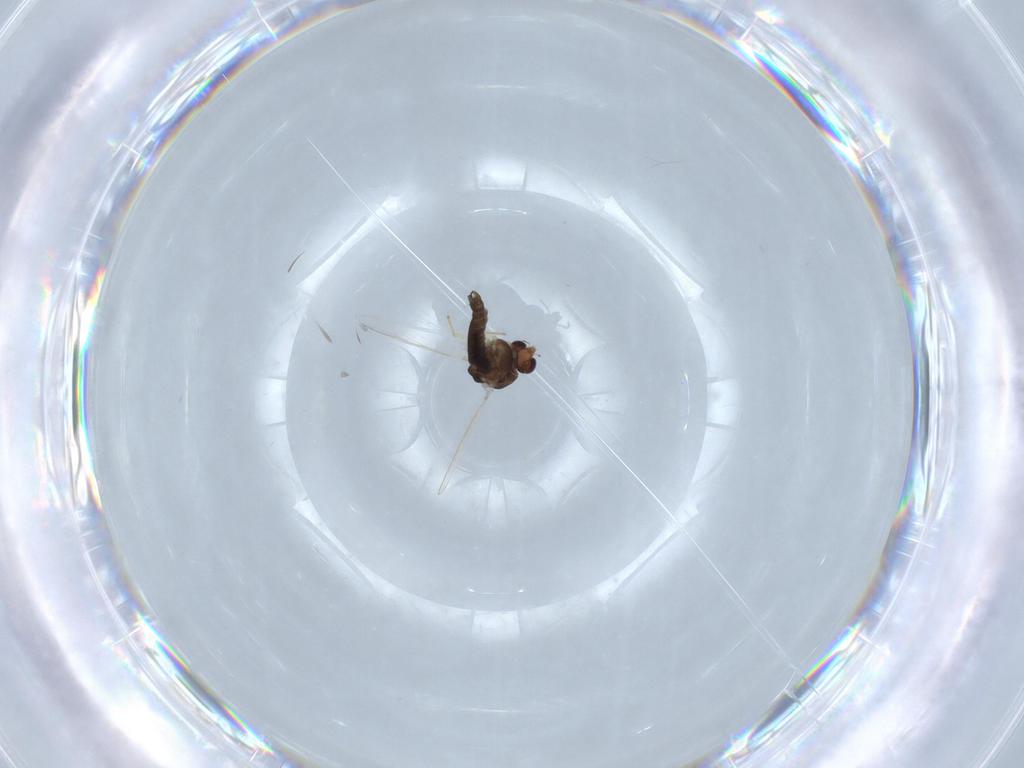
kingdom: Animalia
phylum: Arthropoda
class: Insecta
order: Diptera
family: Chironomidae
